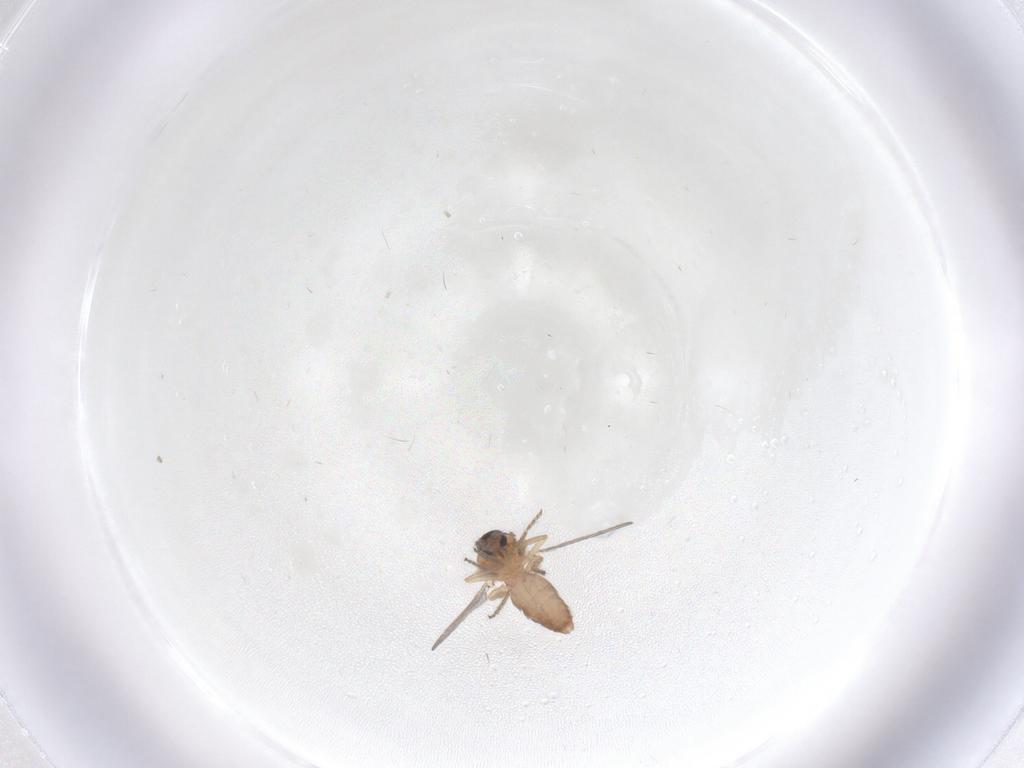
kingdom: Animalia
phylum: Arthropoda
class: Insecta
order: Diptera
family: Ceratopogonidae
